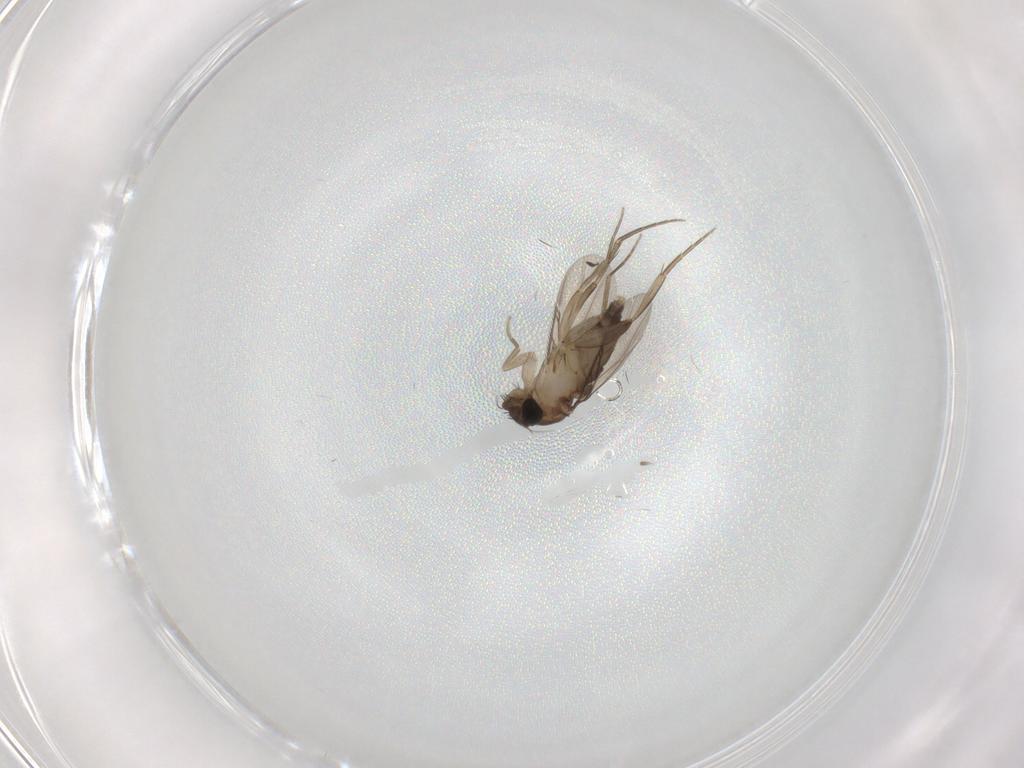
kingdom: Animalia
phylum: Arthropoda
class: Insecta
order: Diptera
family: Phoridae
